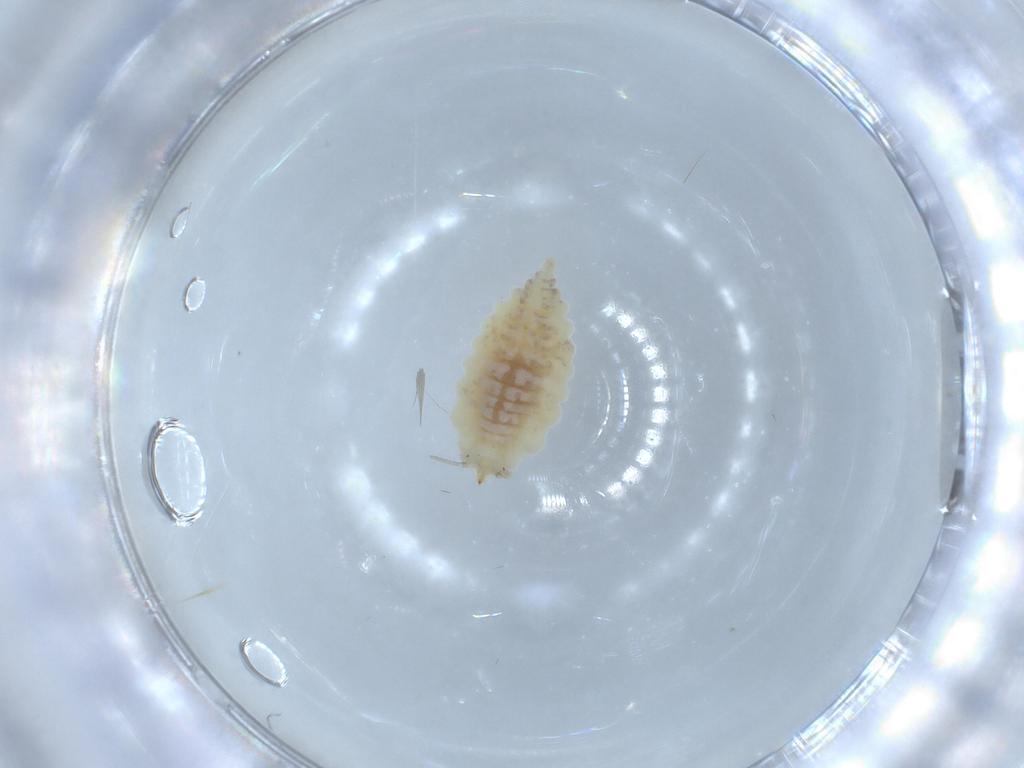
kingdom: Animalia
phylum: Arthropoda
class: Insecta
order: Neuroptera
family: Coniopterygidae
